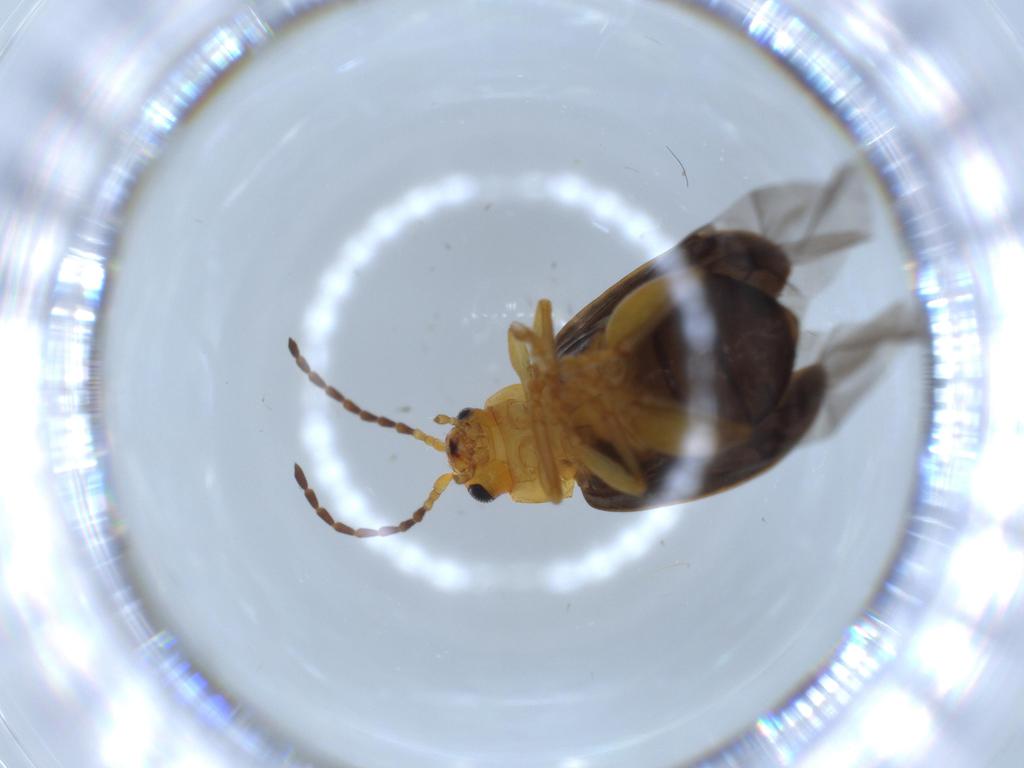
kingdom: Animalia
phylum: Arthropoda
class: Insecta
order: Coleoptera
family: Chrysomelidae
